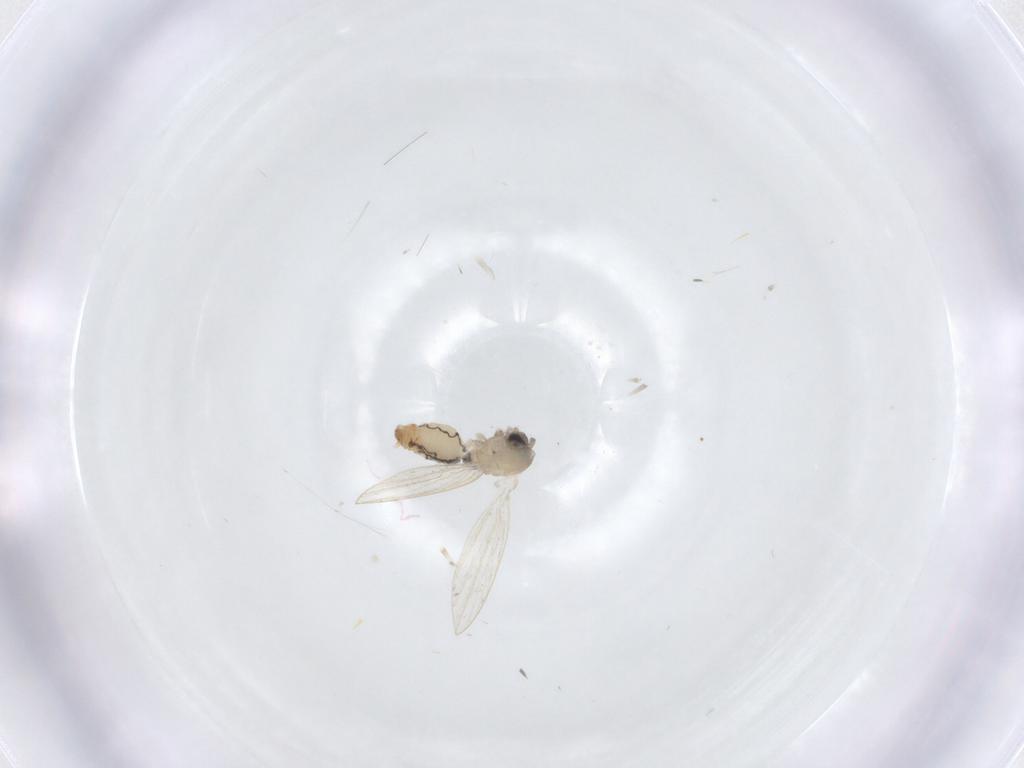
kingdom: Animalia
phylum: Arthropoda
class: Insecta
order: Diptera
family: Psychodidae
